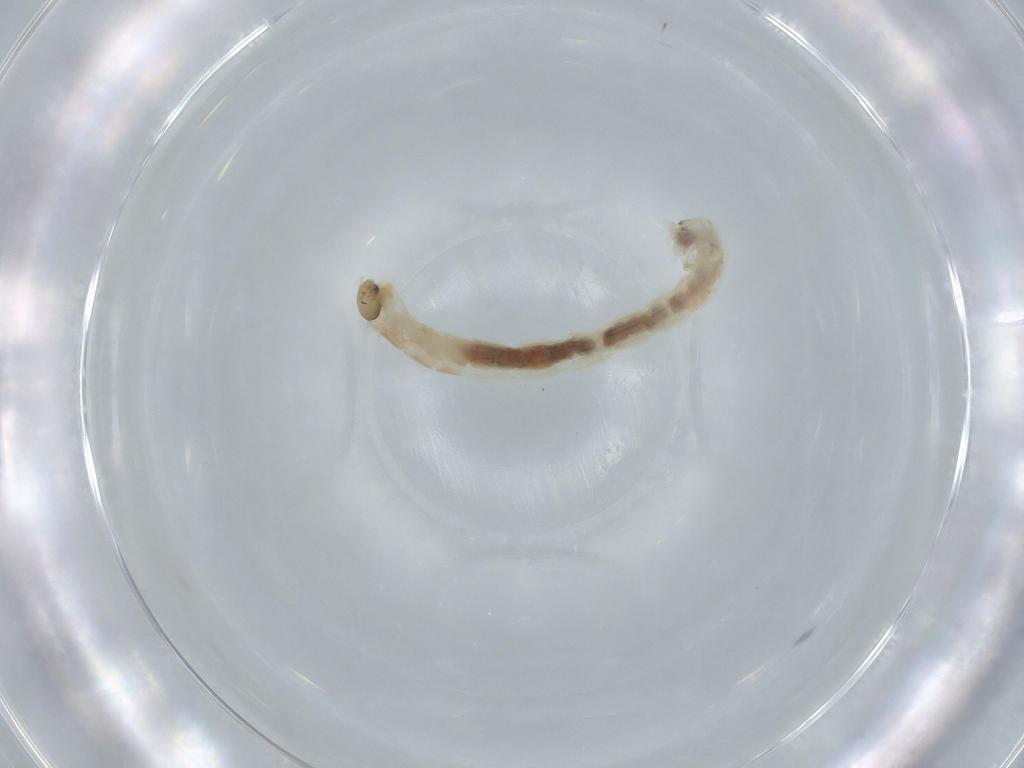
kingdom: Animalia
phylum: Arthropoda
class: Insecta
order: Diptera
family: Chironomidae
